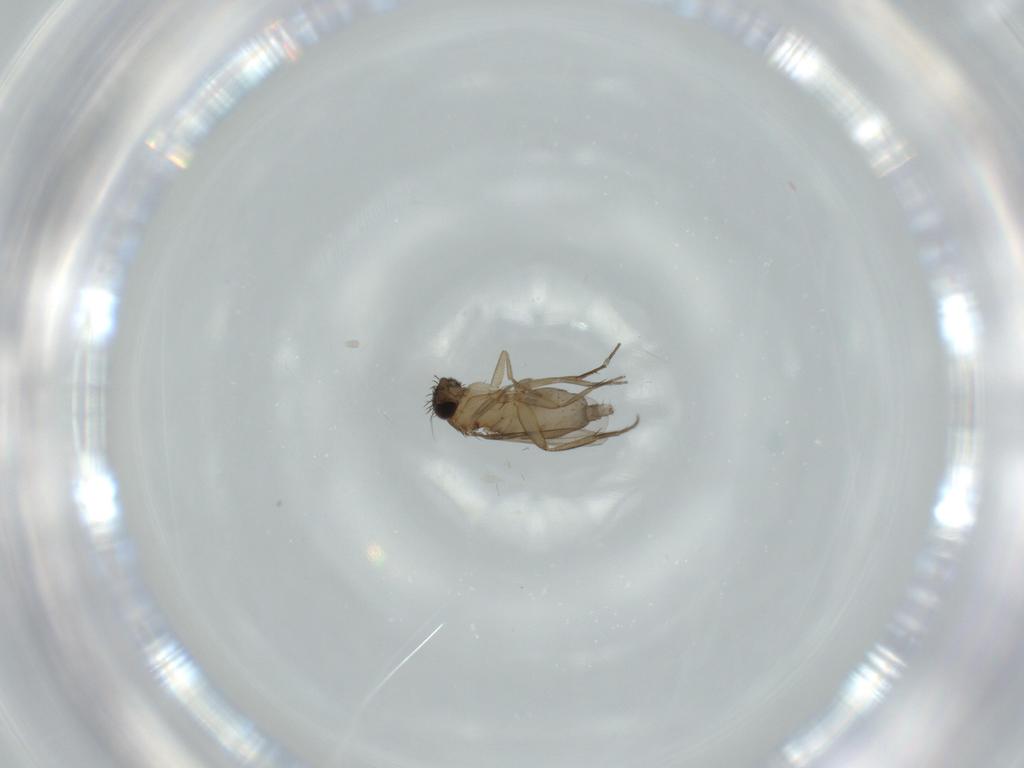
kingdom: Animalia
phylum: Arthropoda
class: Insecta
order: Diptera
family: Phoridae
